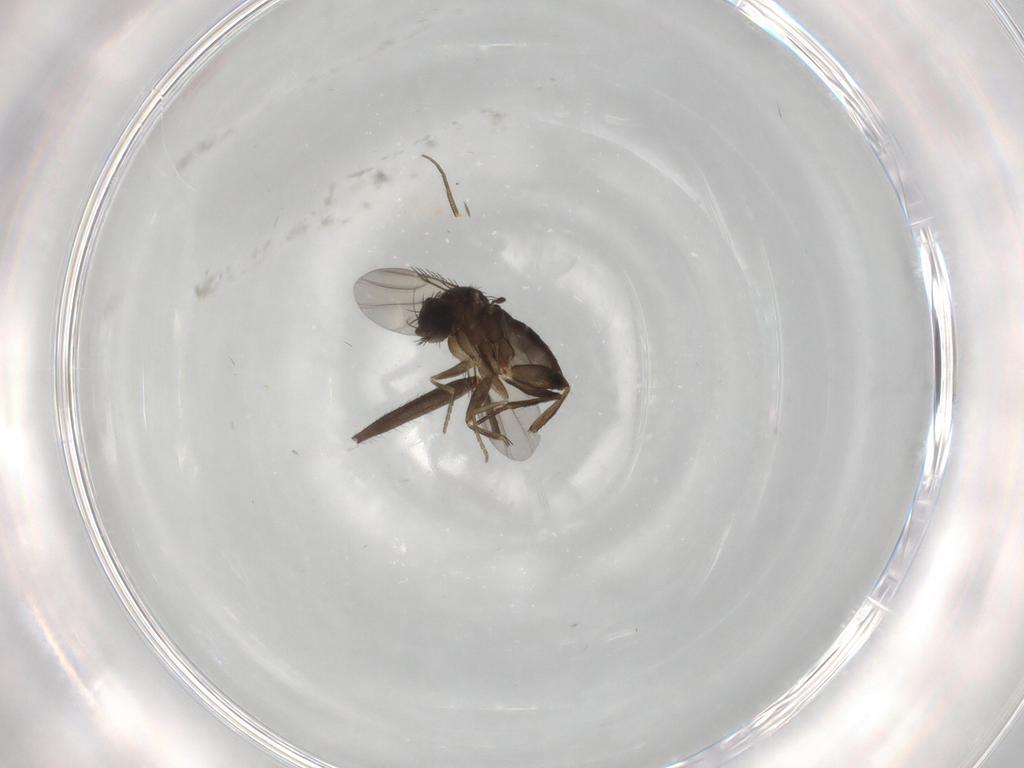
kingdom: Animalia
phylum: Arthropoda
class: Insecta
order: Diptera
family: Phoridae
